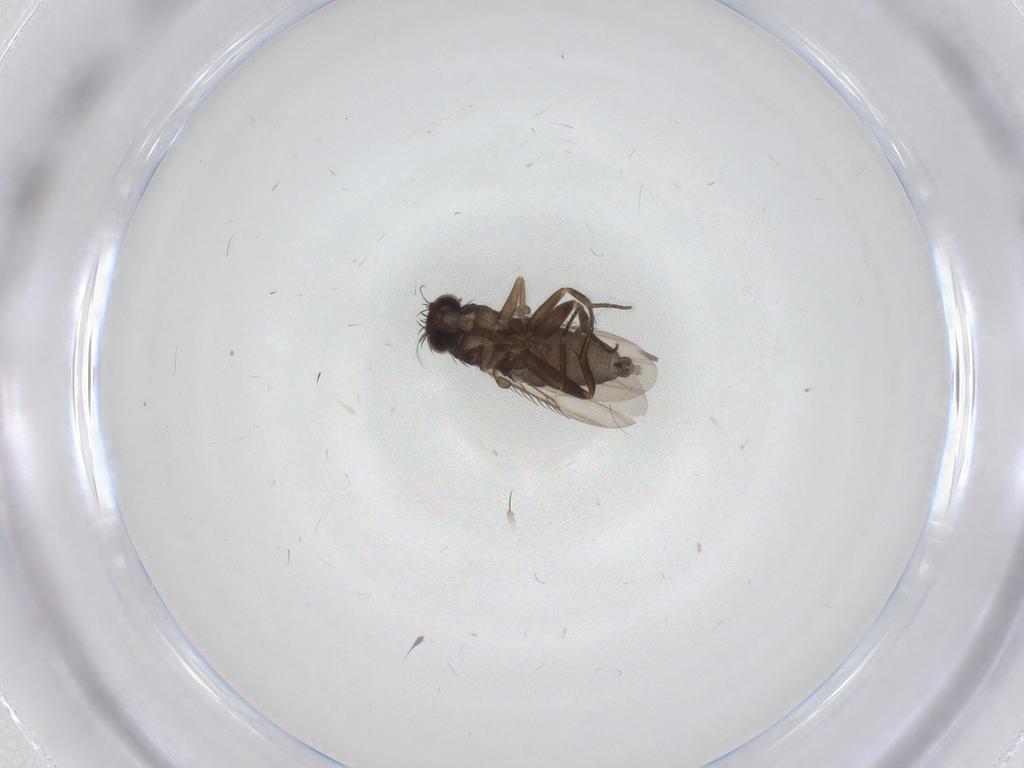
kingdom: Animalia
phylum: Arthropoda
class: Insecta
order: Diptera
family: Phoridae
